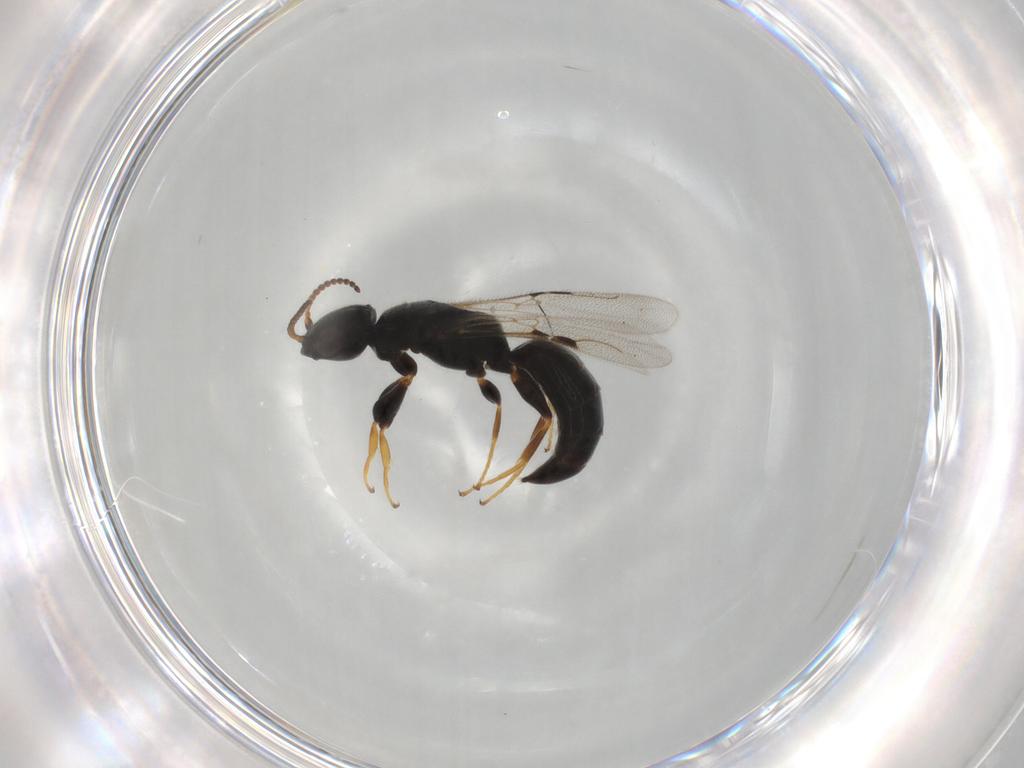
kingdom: Animalia
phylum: Arthropoda
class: Insecta
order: Hymenoptera
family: Bethylidae
